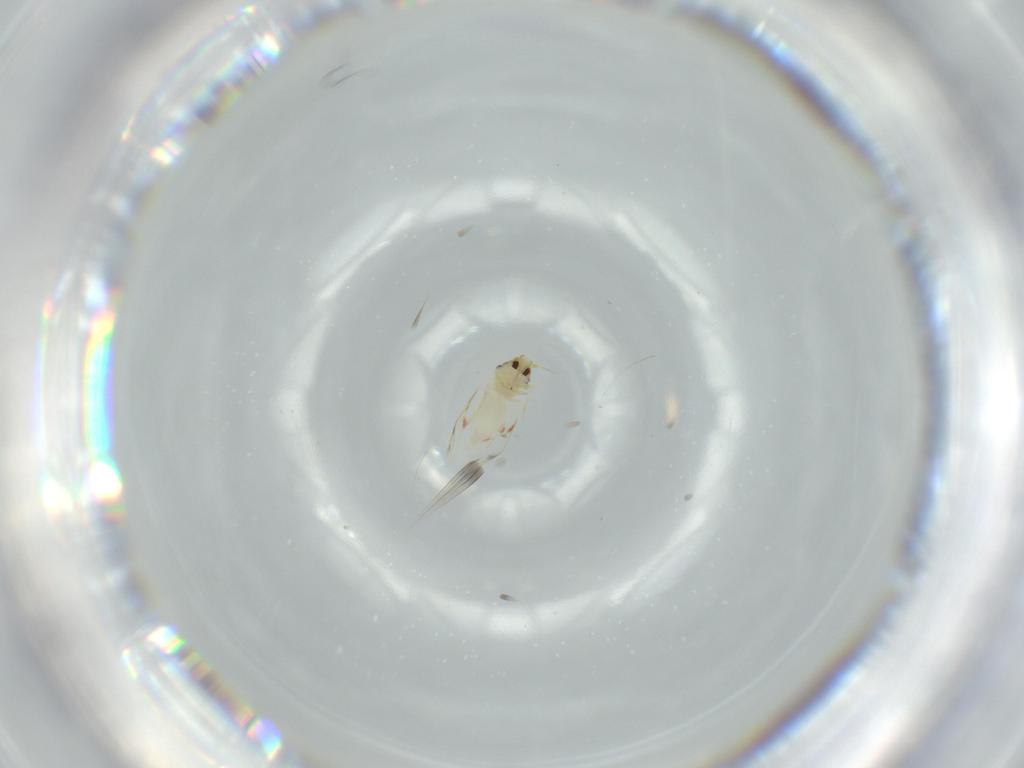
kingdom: Animalia
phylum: Arthropoda
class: Insecta
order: Hemiptera
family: Aleyrodidae
